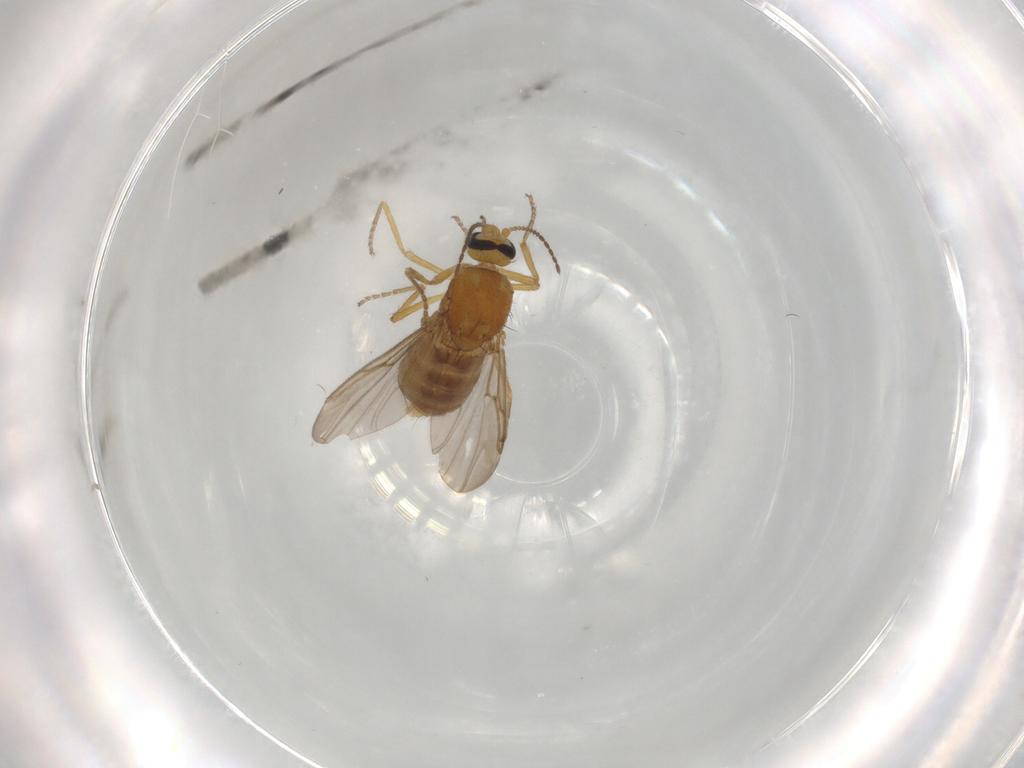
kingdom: Animalia
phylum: Arthropoda
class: Insecta
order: Diptera
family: Ceratopogonidae
